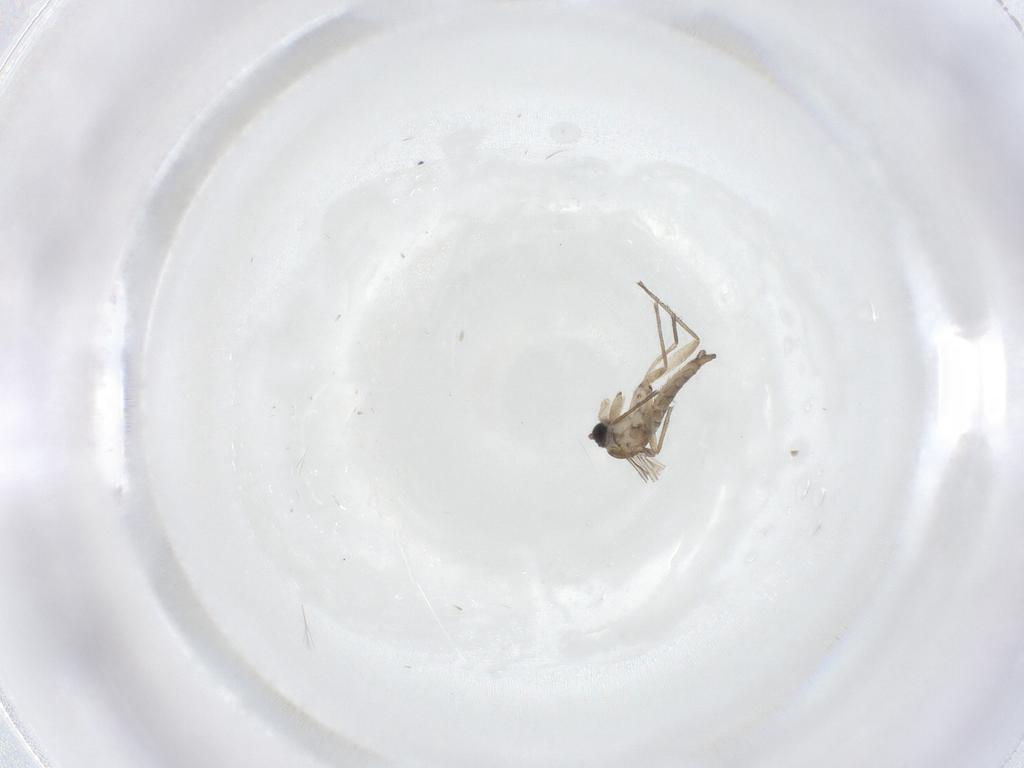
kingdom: Animalia
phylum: Arthropoda
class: Insecta
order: Diptera
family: Sciaridae
